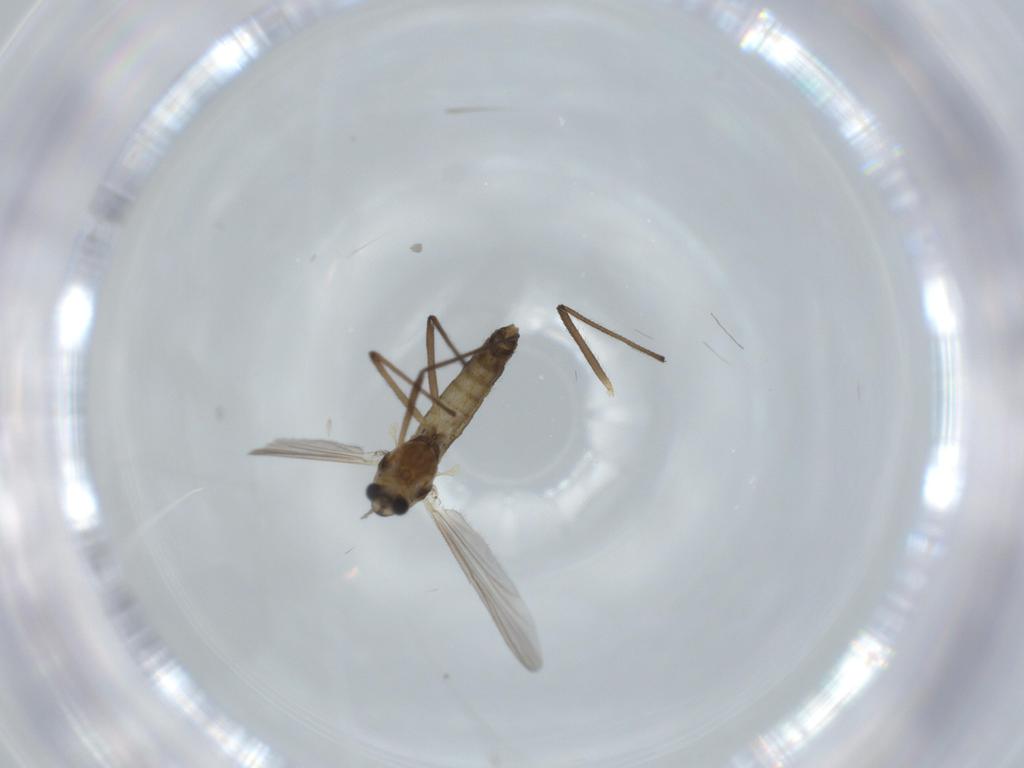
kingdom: Animalia
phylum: Arthropoda
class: Insecta
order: Diptera
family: Chironomidae
